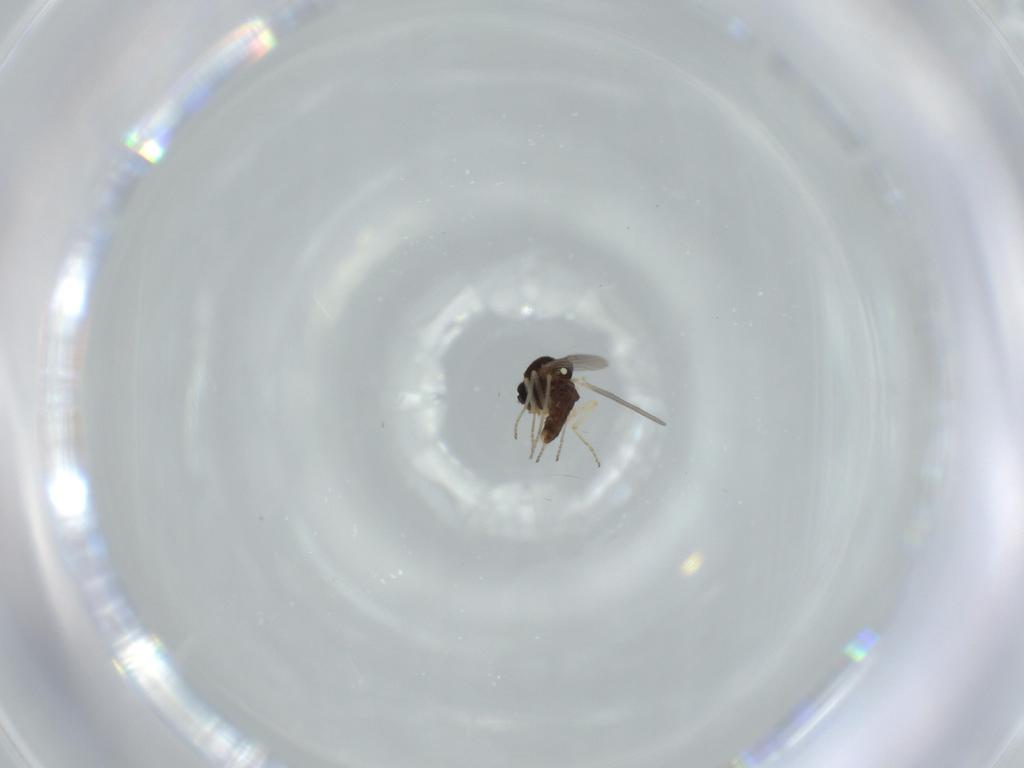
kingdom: Animalia
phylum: Arthropoda
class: Insecta
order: Diptera
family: Ceratopogonidae
